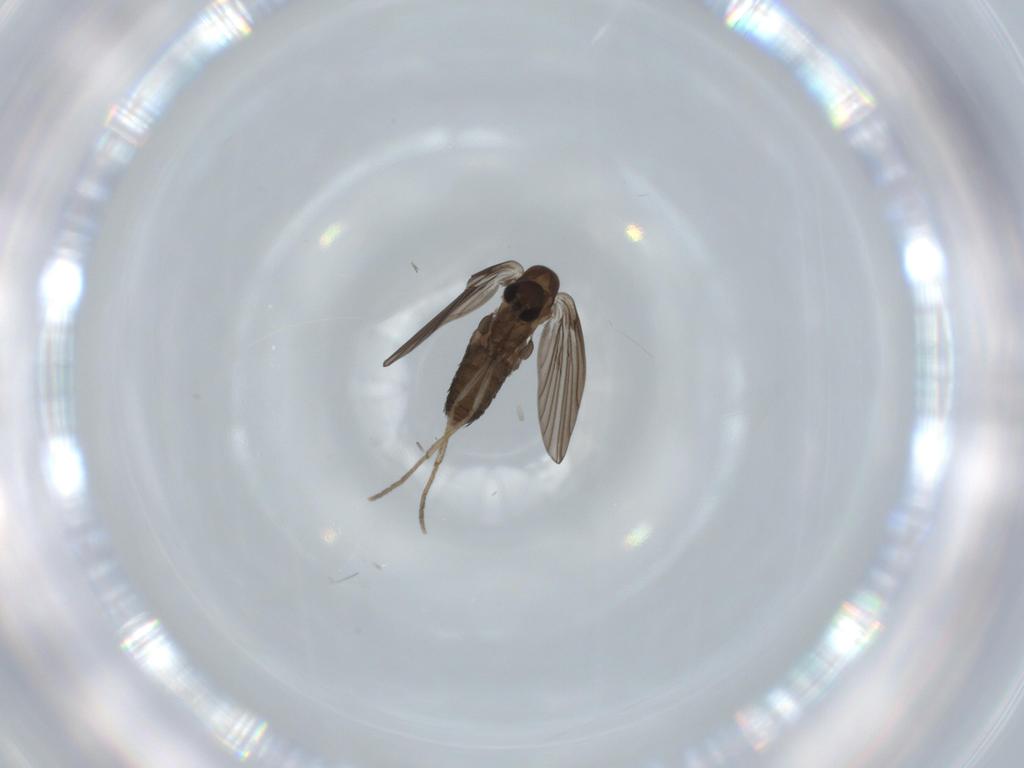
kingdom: Animalia
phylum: Arthropoda
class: Insecta
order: Diptera
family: Psychodidae
